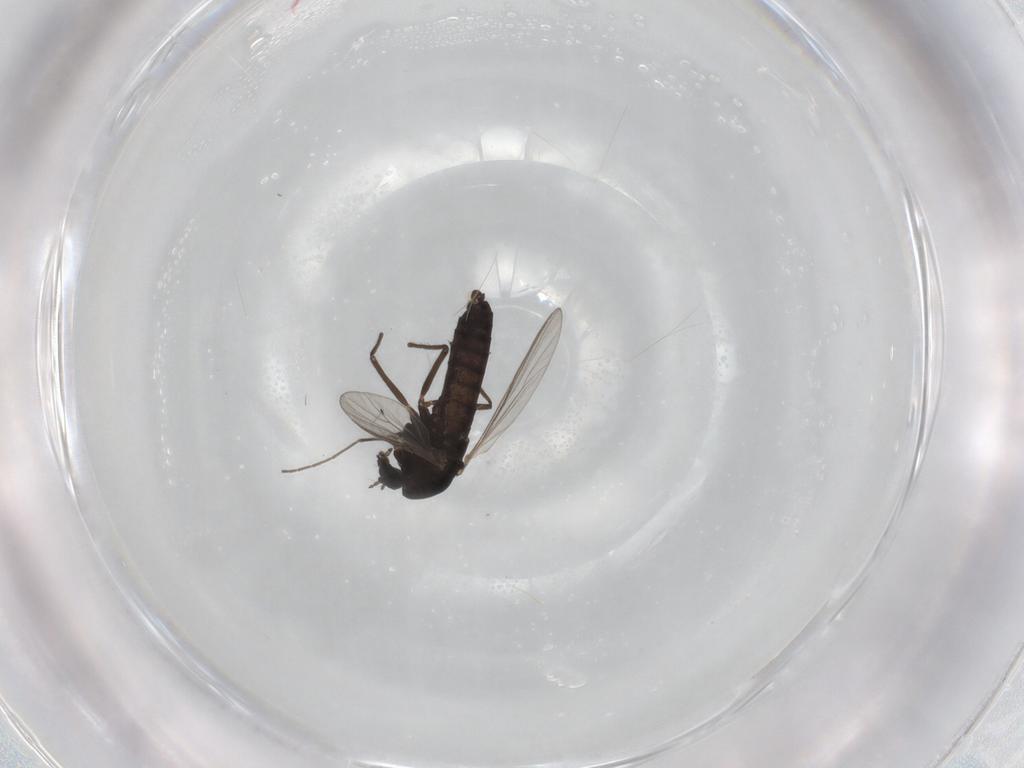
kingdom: Animalia
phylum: Arthropoda
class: Insecta
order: Diptera
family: Chironomidae
